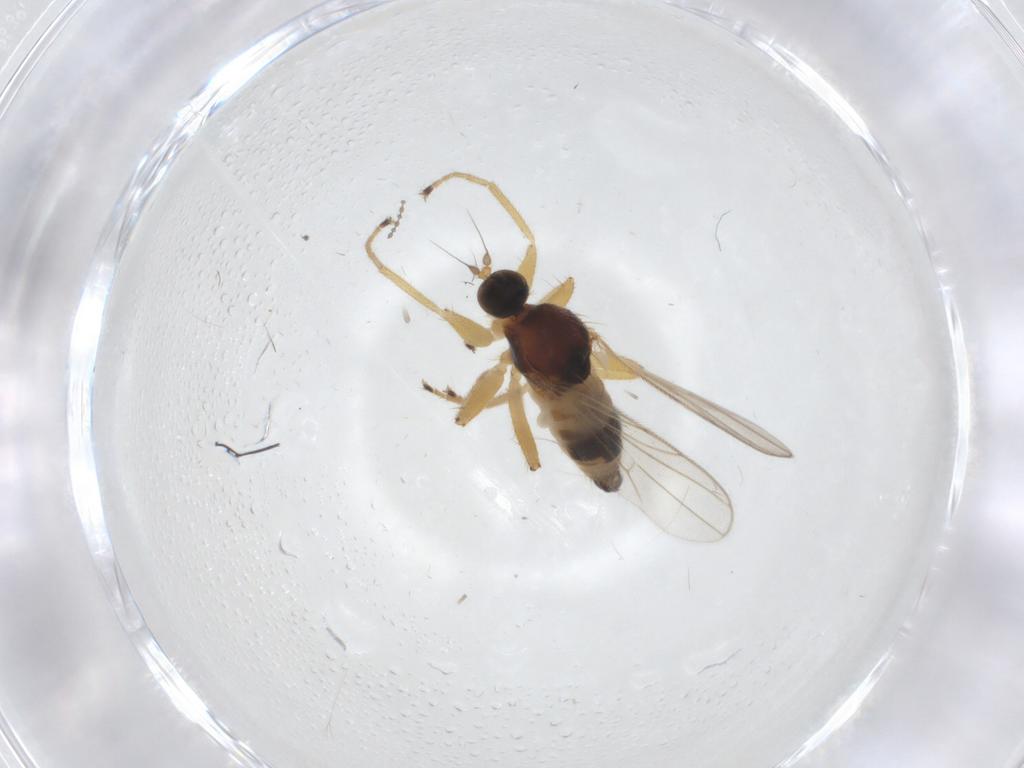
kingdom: Animalia
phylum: Arthropoda
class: Insecta
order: Diptera
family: Hybotidae
